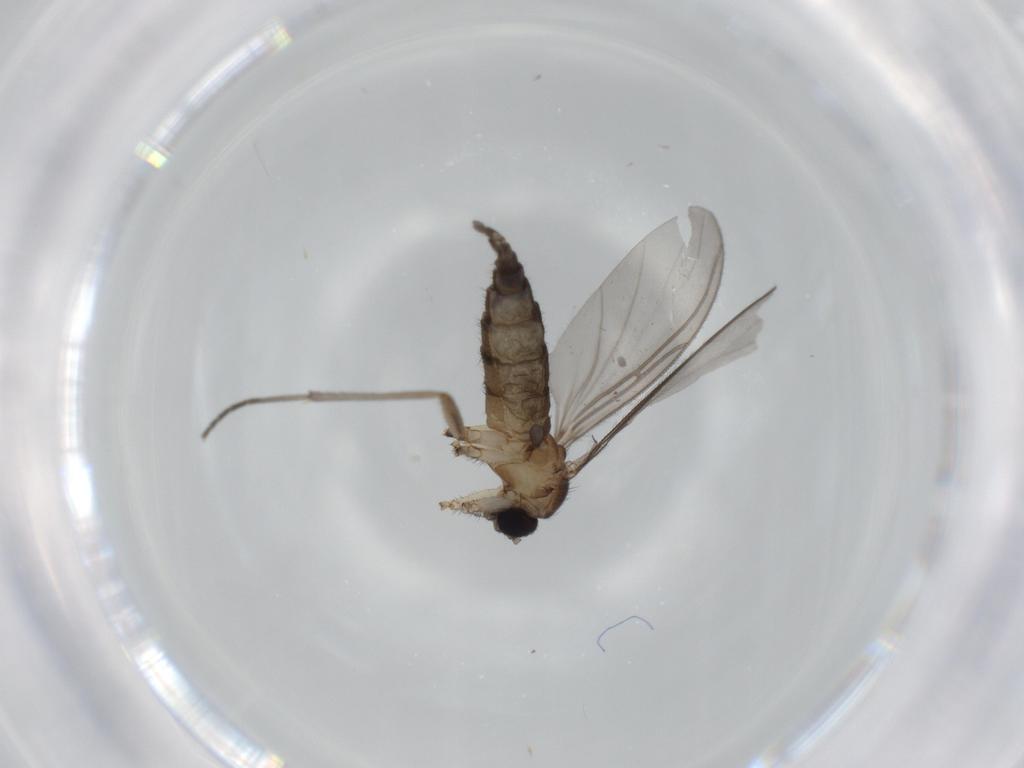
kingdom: Animalia
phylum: Arthropoda
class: Insecta
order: Diptera
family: Sciaridae
